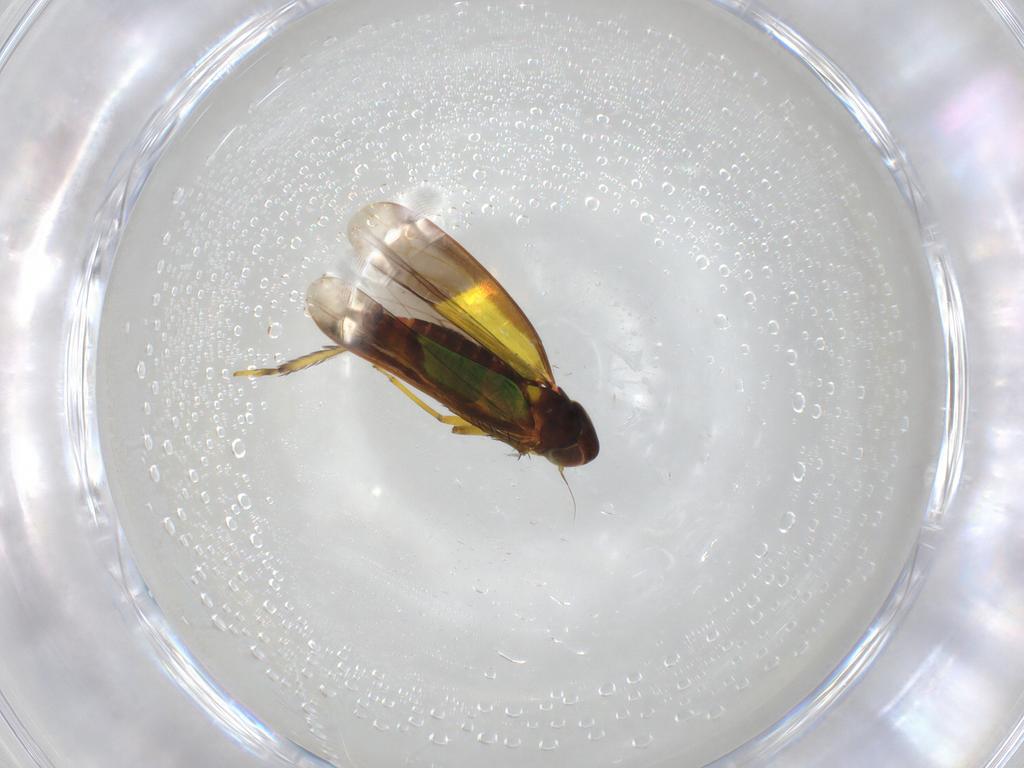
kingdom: Animalia
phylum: Arthropoda
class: Insecta
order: Hemiptera
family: Cicadellidae
